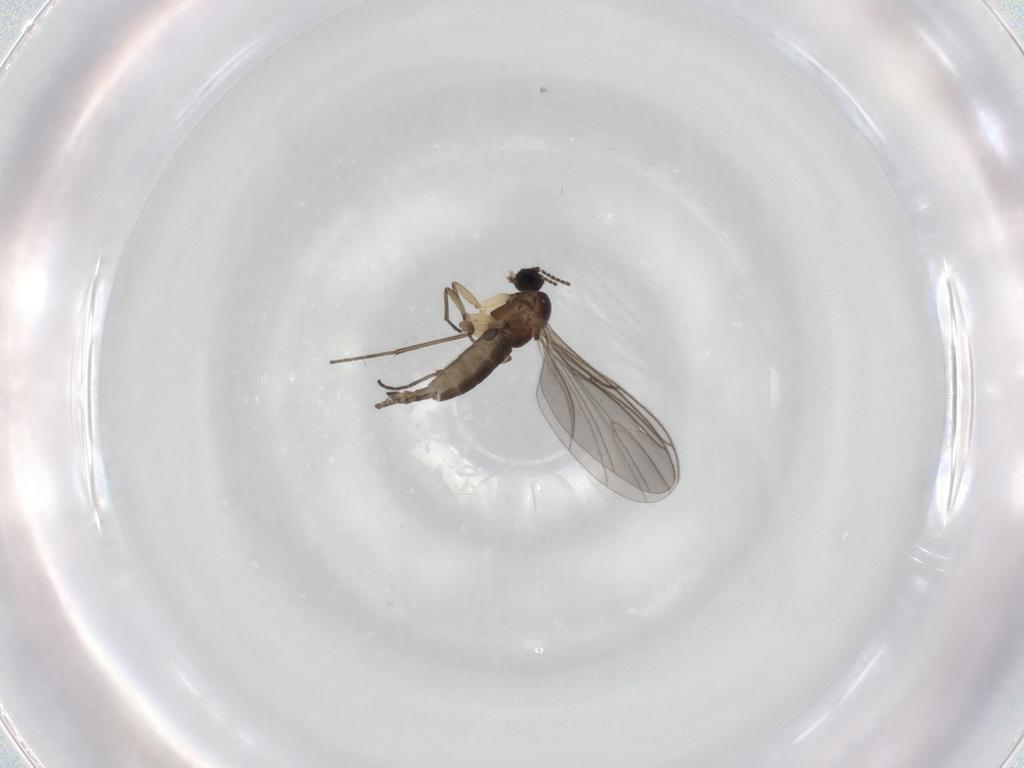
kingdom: Animalia
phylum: Arthropoda
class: Insecta
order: Diptera
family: Sciaridae
